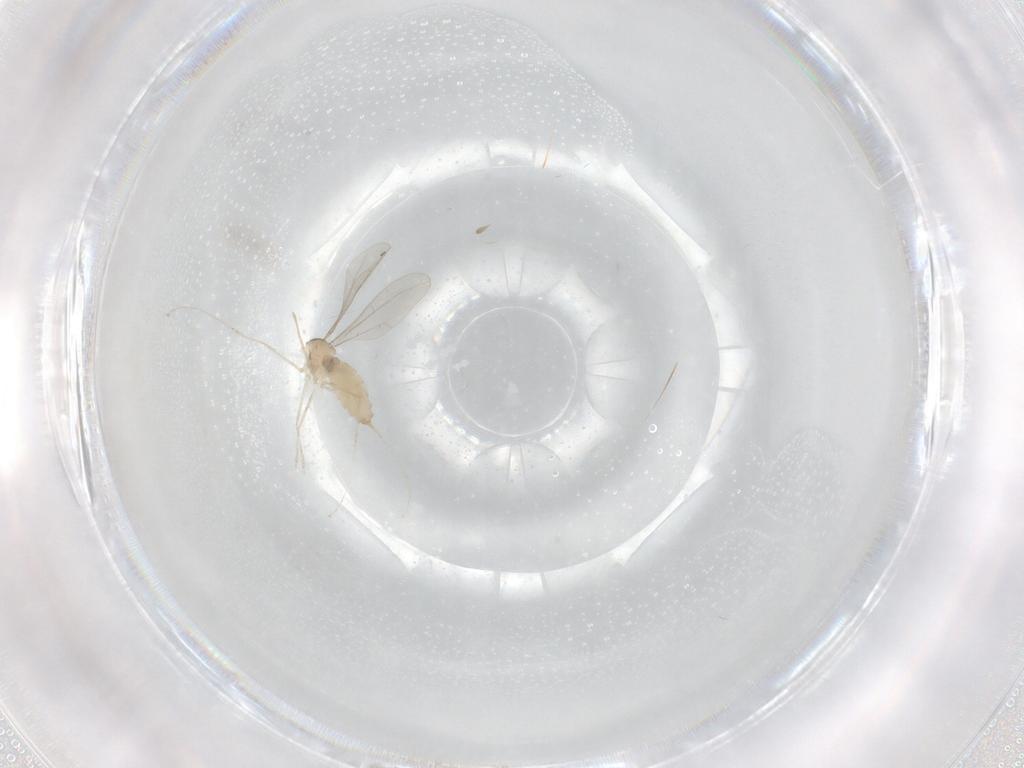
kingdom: Animalia
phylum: Arthropoda
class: Insecta
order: Diptera
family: Cecidomyiidae
